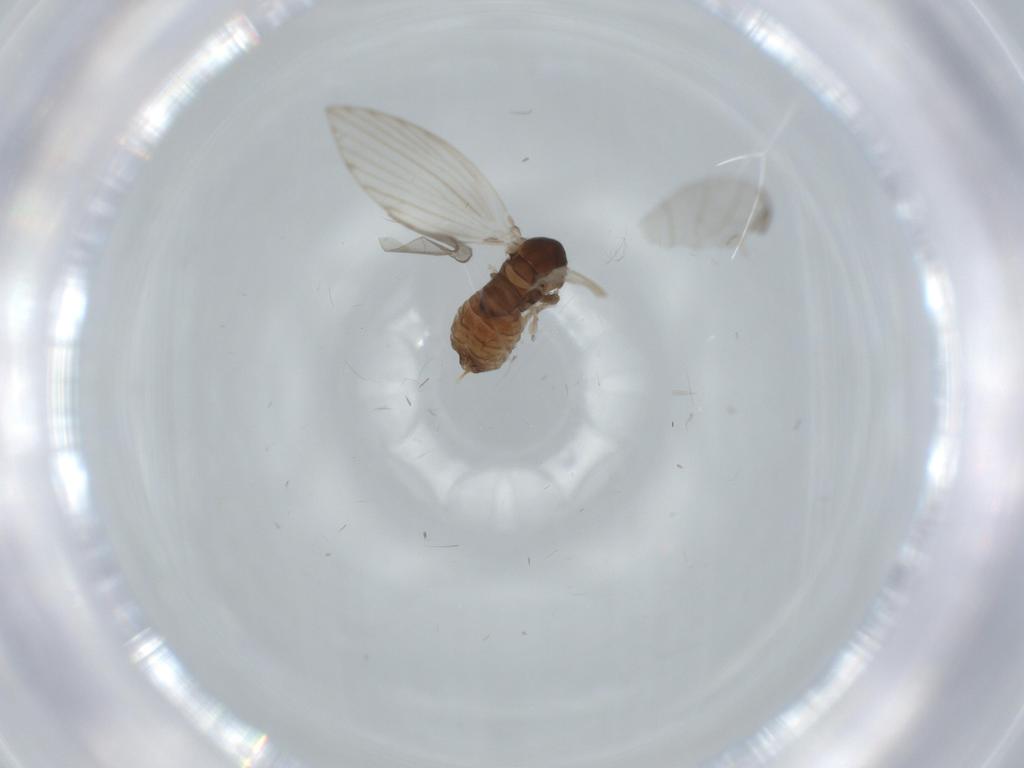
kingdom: Animalia
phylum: Arthropoda
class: Insecta
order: Diptera
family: Psychodidae
